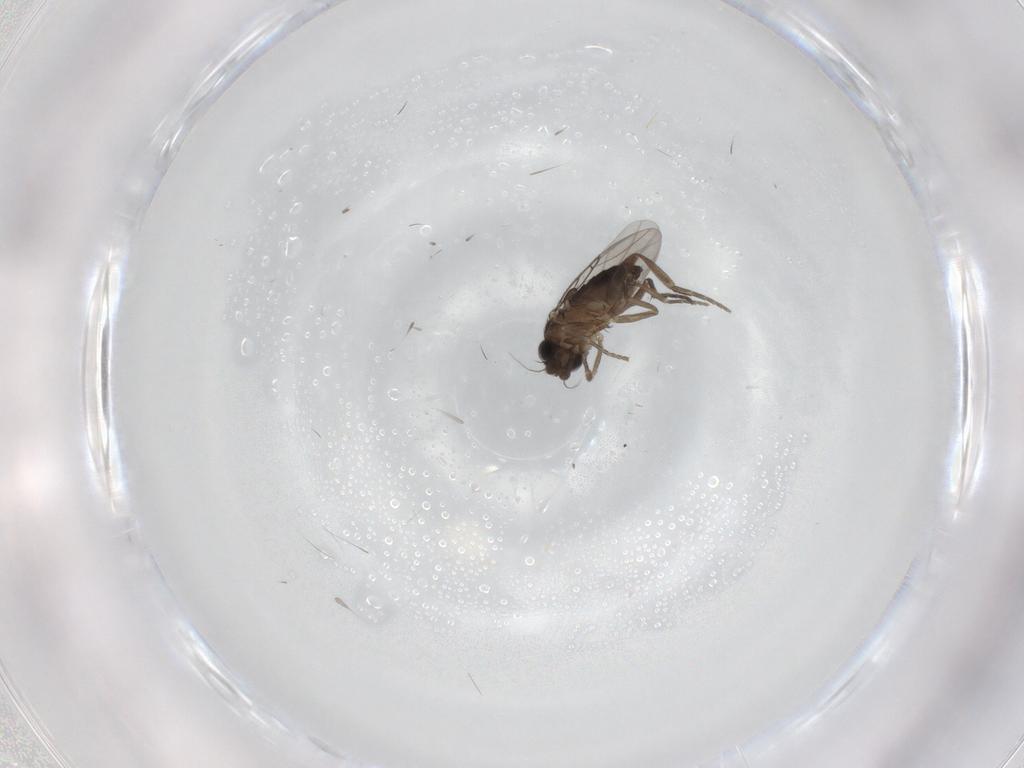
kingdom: Animalia
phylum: Arthropoda
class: Insecta
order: Diptera
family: Phoridae
